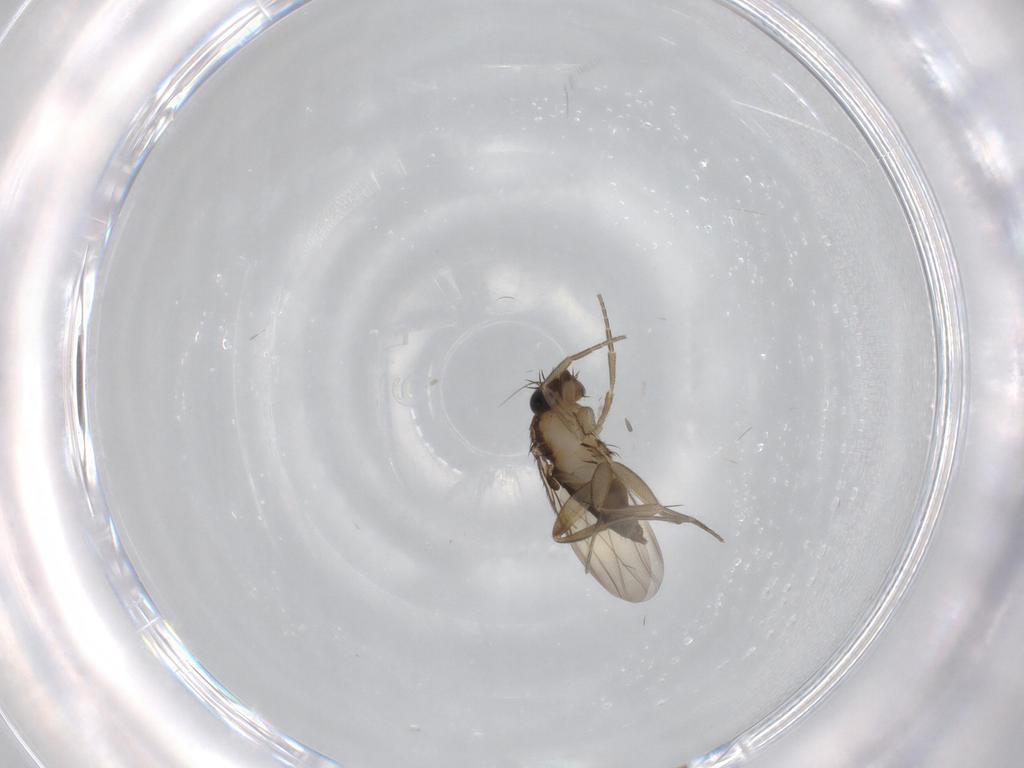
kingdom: Animalia
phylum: Arthropoda
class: Insecta
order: Diptera
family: Phoridae
